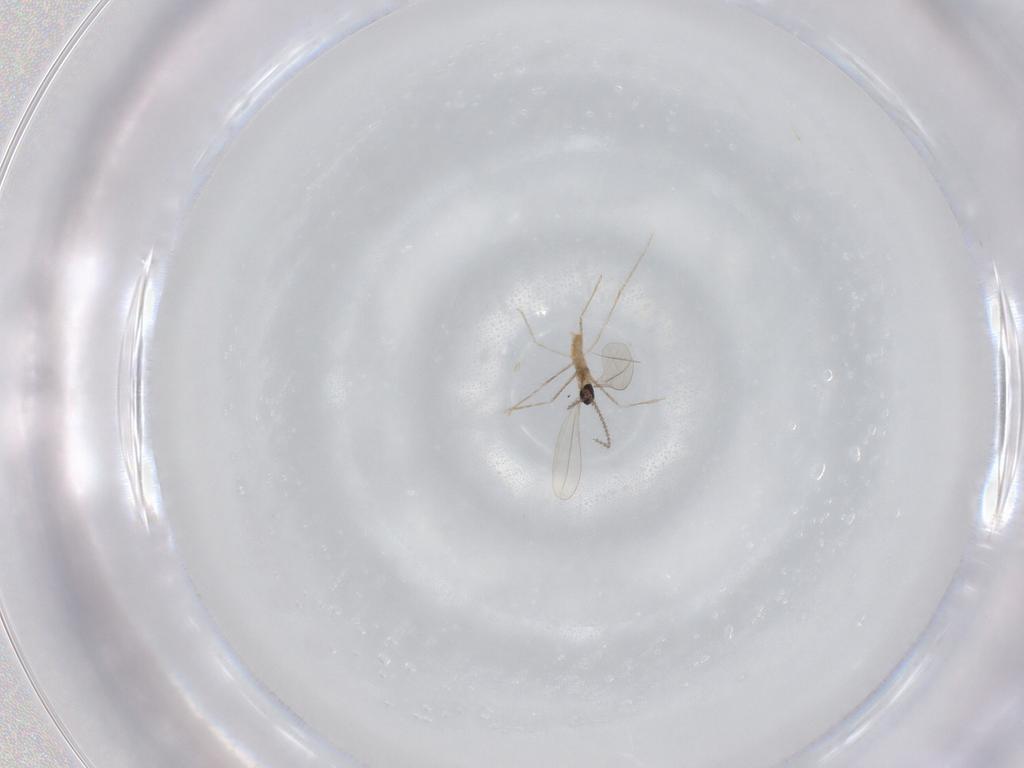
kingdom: Animalia
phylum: Arthropoda
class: Insecta
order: Diptera
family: Cecidomyiidae
